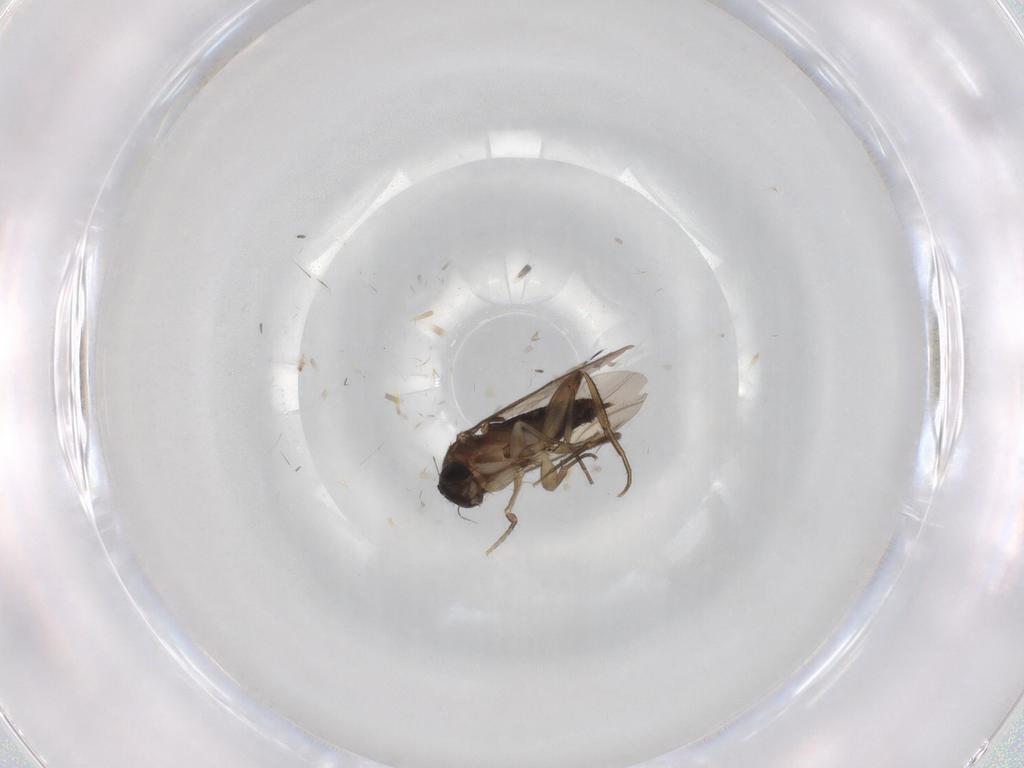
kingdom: Animalia
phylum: Arthropoda
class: Insecta
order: Diptera
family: Phoridae
